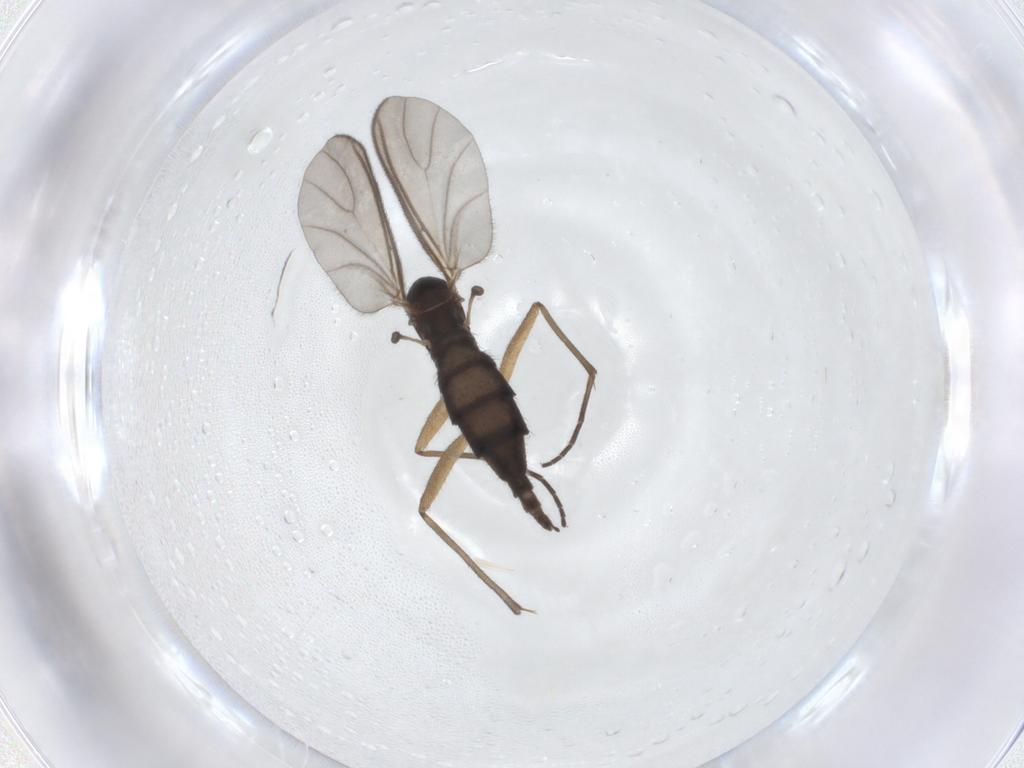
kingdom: Animalia
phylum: Arthropoda
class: Insecta
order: Diptera
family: Sciaridae
